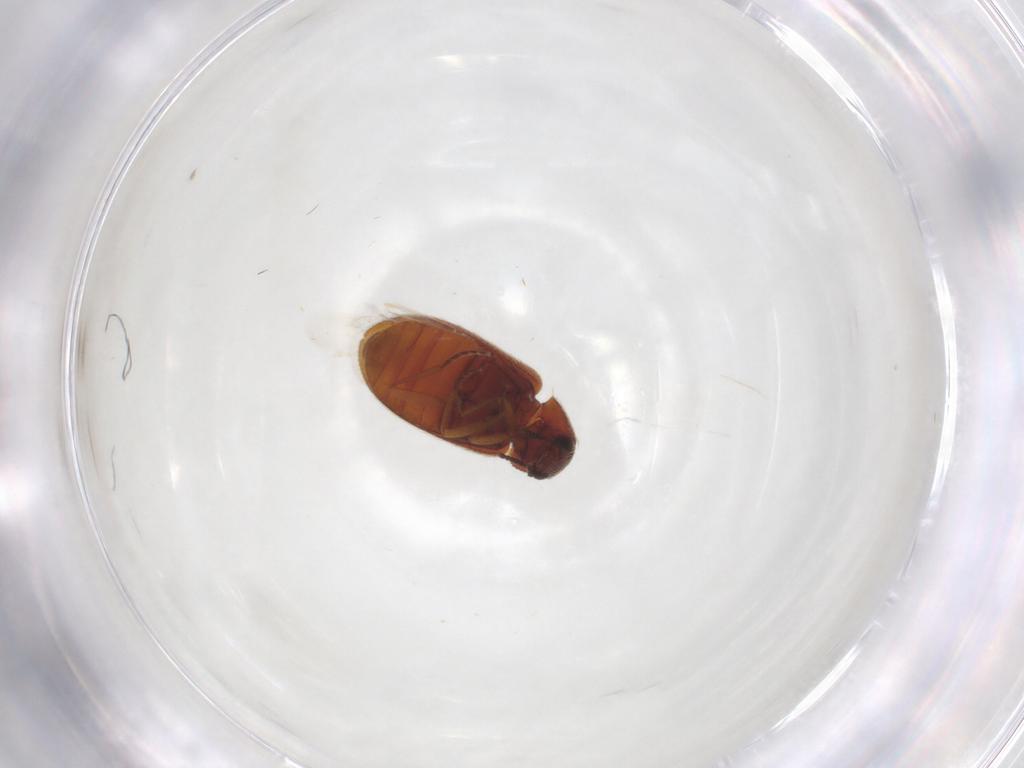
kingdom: Animalia
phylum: Arthropoda
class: Insecta
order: Coleoptera
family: Rhadalidae
